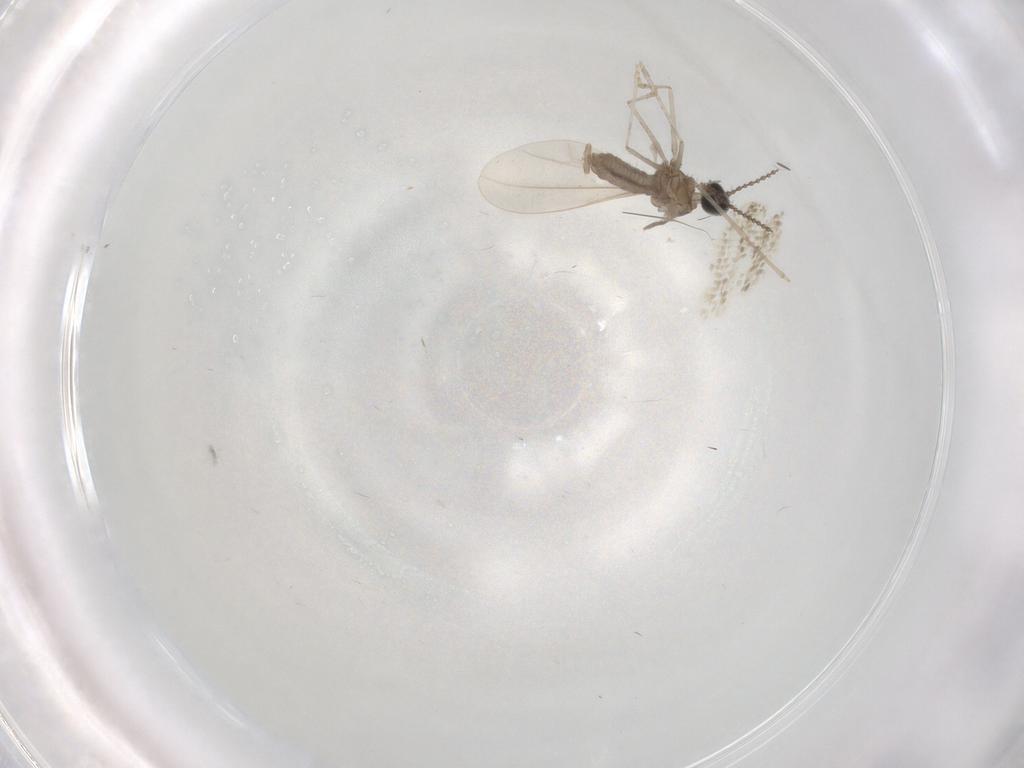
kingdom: Animalia
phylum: Arthropoda
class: Insecta
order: Diptera
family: Cecidomyiidae
